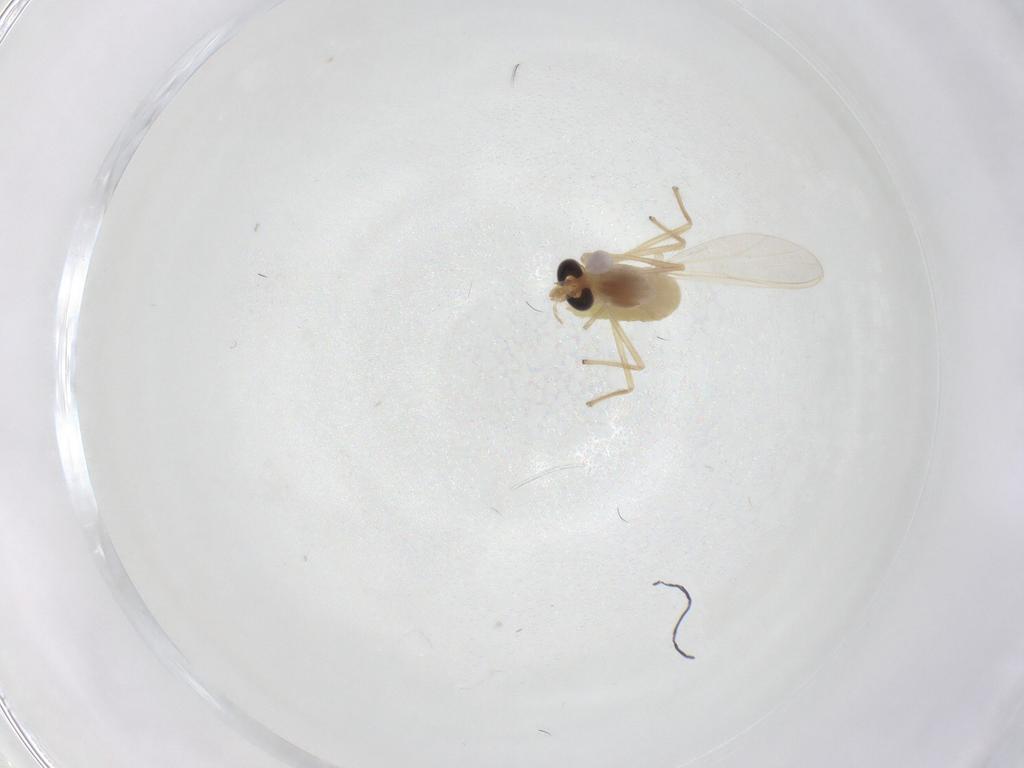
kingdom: Animalia
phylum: Arthropoda
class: Insecta
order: Diptera
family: Chironomidae
